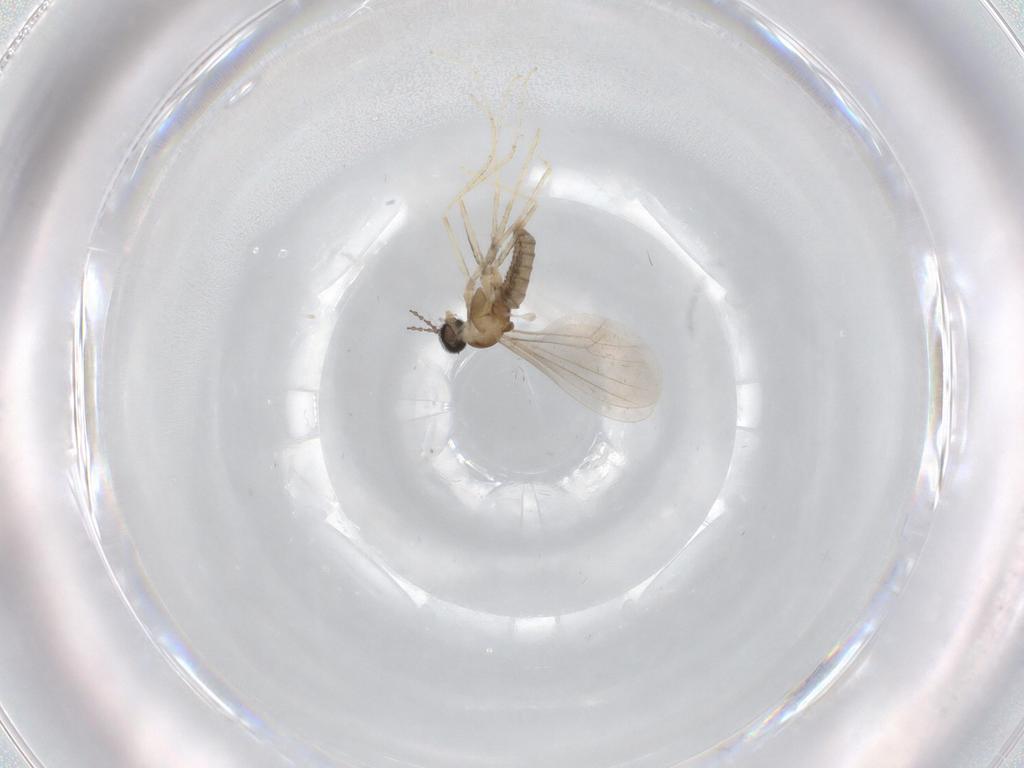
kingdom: Animalia
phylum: Arthropoda
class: Insecta
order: Diptera
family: Cecidomyiidae
